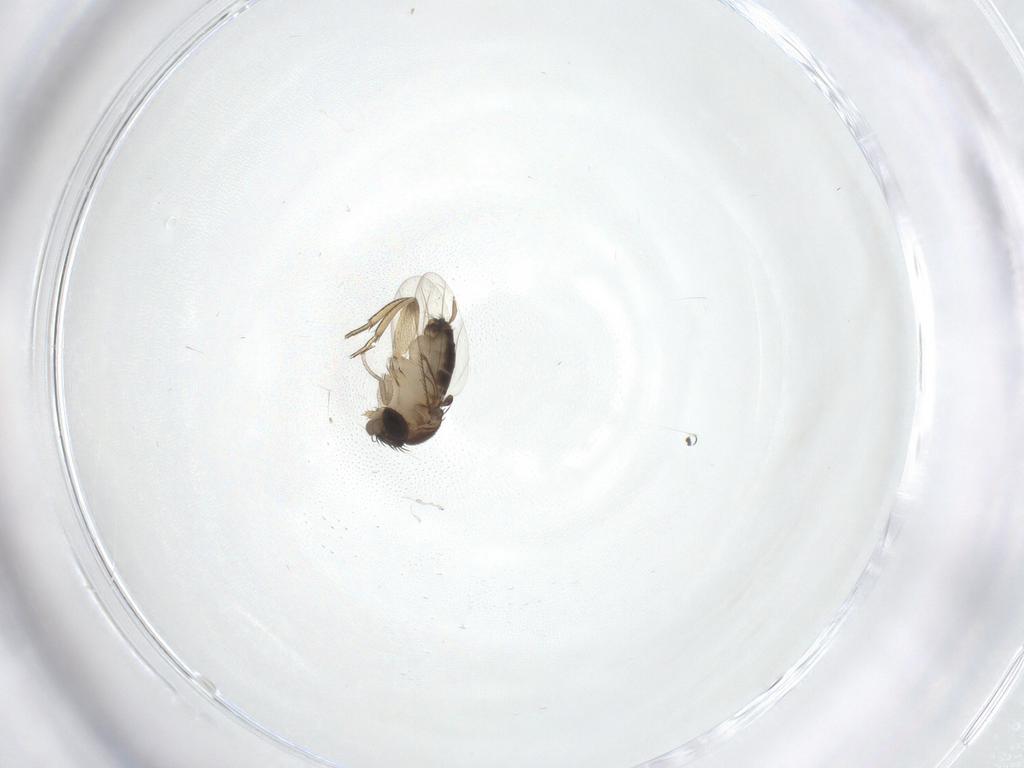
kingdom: Animalia
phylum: Arthropoda
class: Insecta
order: Diptera
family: Phoridae
